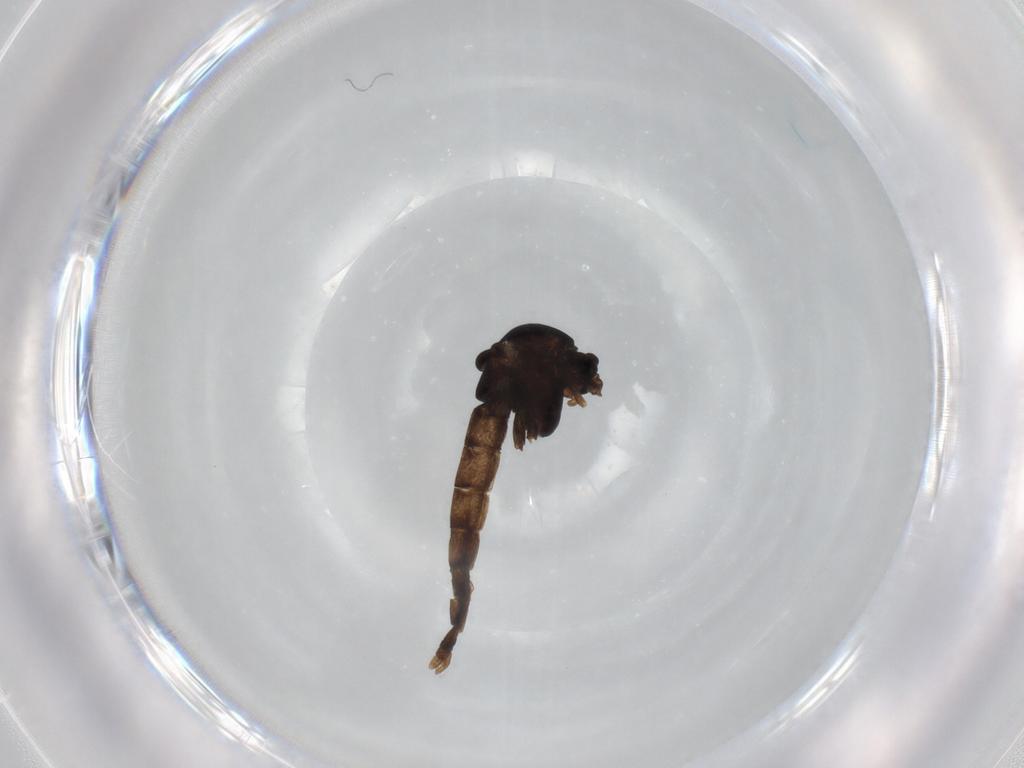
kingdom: Animalia
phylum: Arthropoda
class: Insecta
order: Diptera
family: Chironomidae
